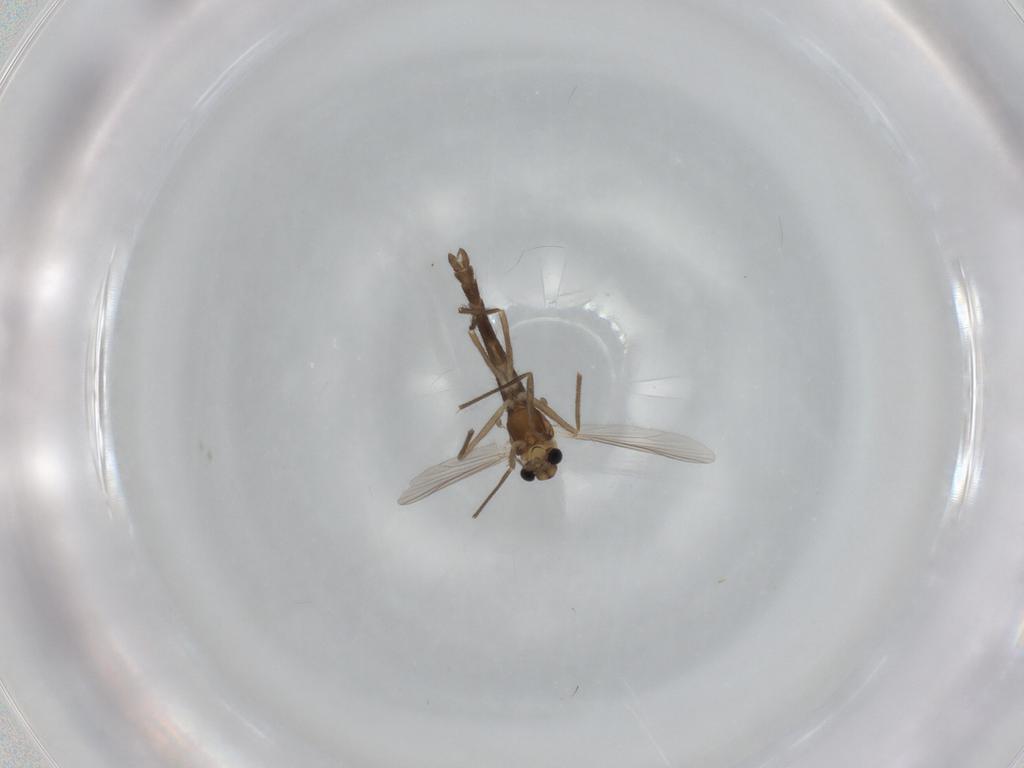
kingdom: Animalia
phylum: Arthropoda
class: Insecta
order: Diptera
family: Chironomidae
